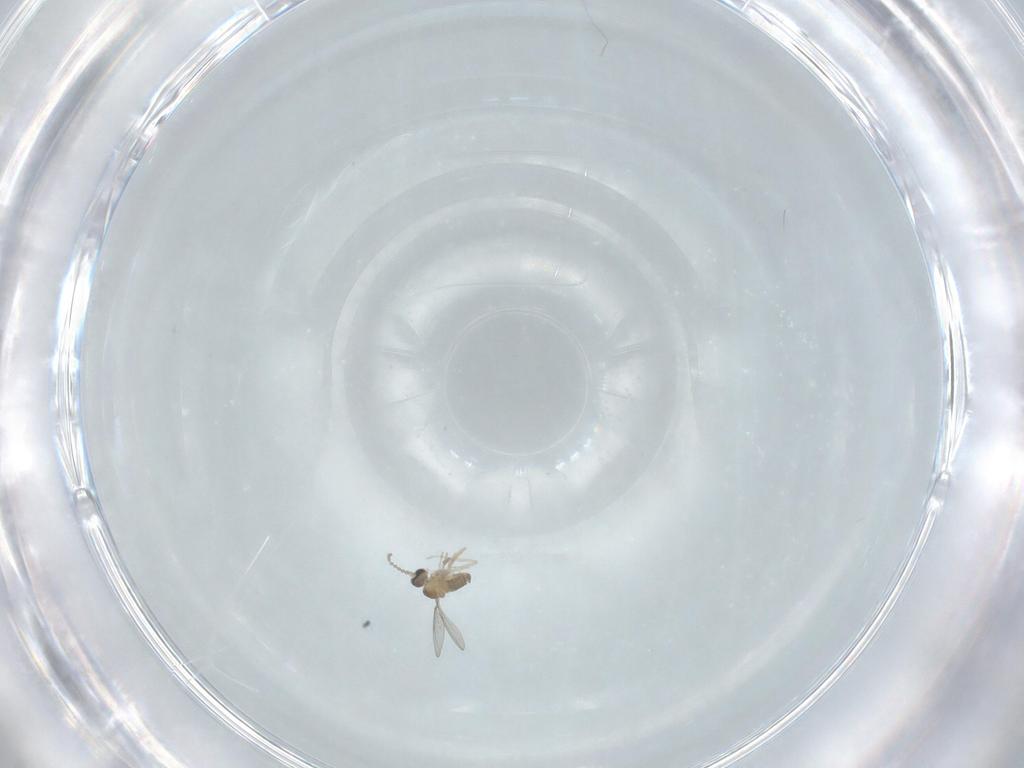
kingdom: Animalia
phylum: Arthropoda
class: Insecta
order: Diptera
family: Cecidomyiidae
